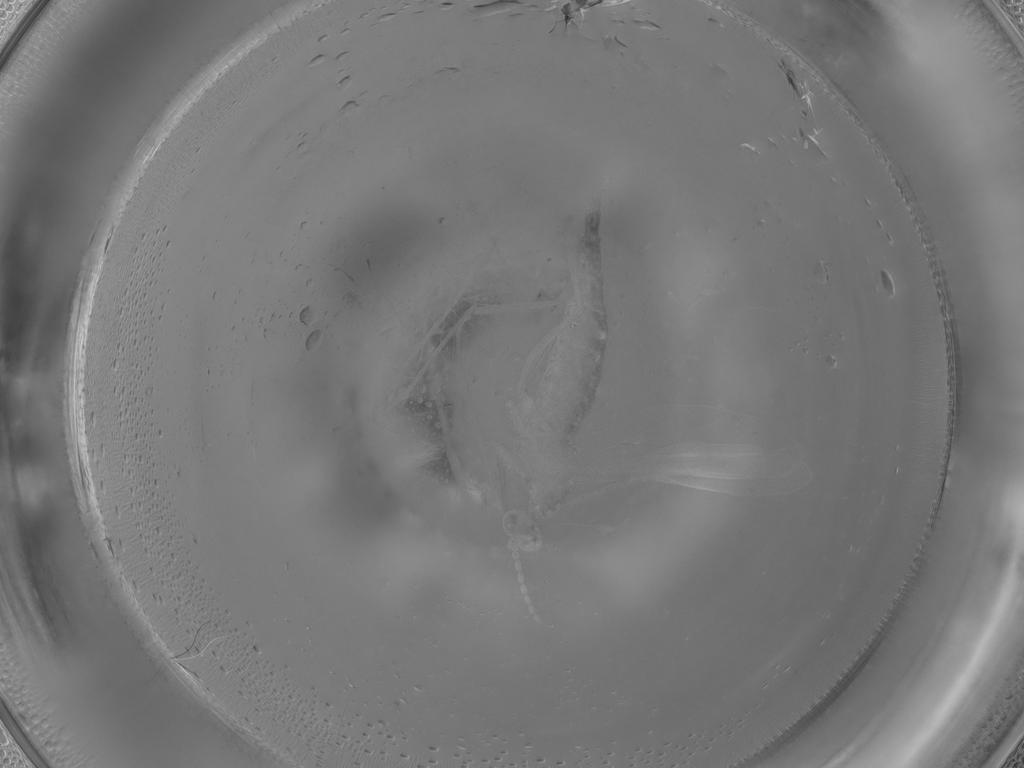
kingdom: Animalia
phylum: Arthropoda
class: Insecta
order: Diptera
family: Cecidomyiidae
